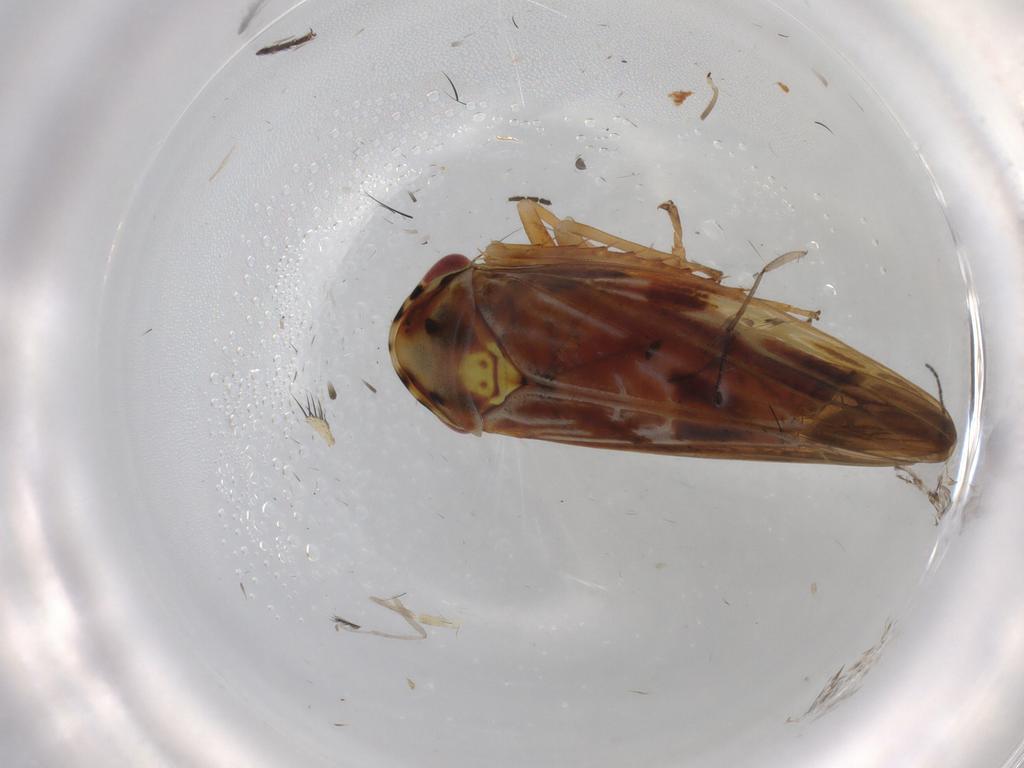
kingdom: Animalia
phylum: Arthropoda
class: Insecta
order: Hemiptera
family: Cicadellidae
